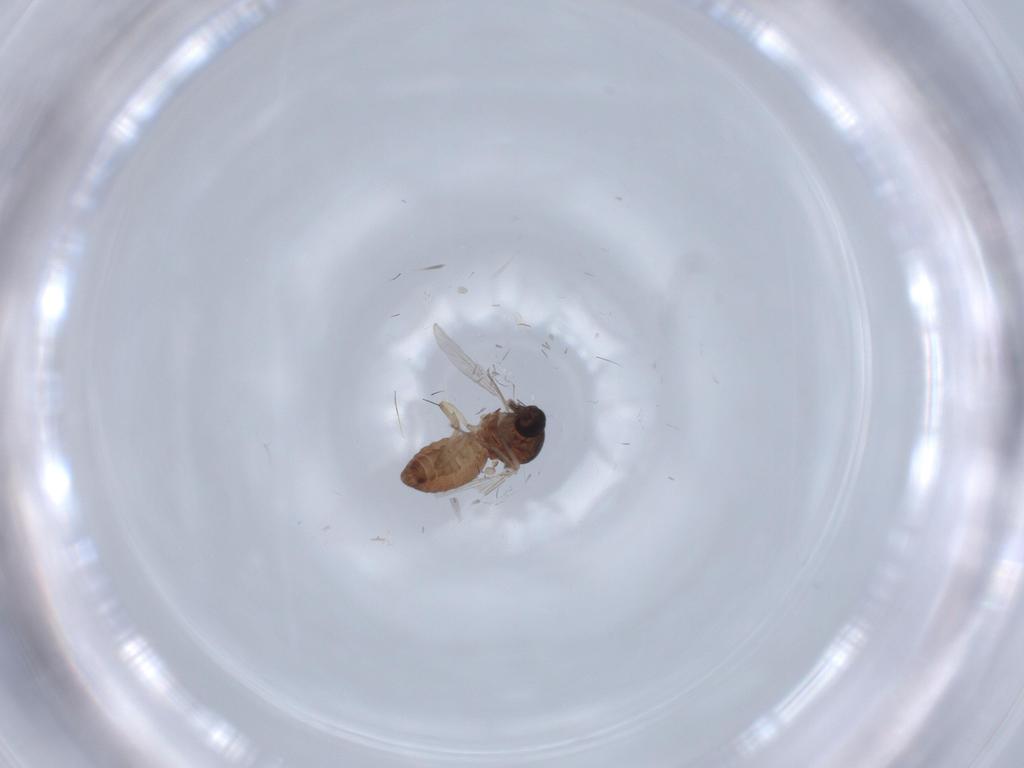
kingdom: Animalia
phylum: Arthropoda
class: Insecta
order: Diptera
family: Ceratopogonidae
